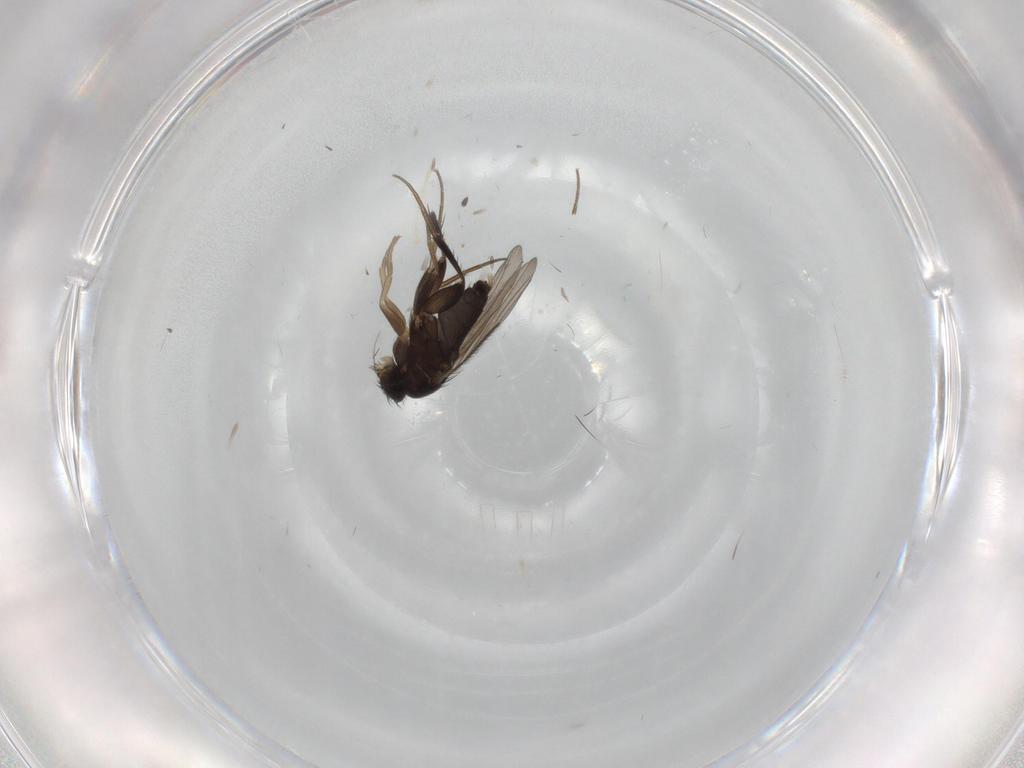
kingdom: Animalia
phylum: Arthropoda
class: Insecta
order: Diptera
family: Phoridae
